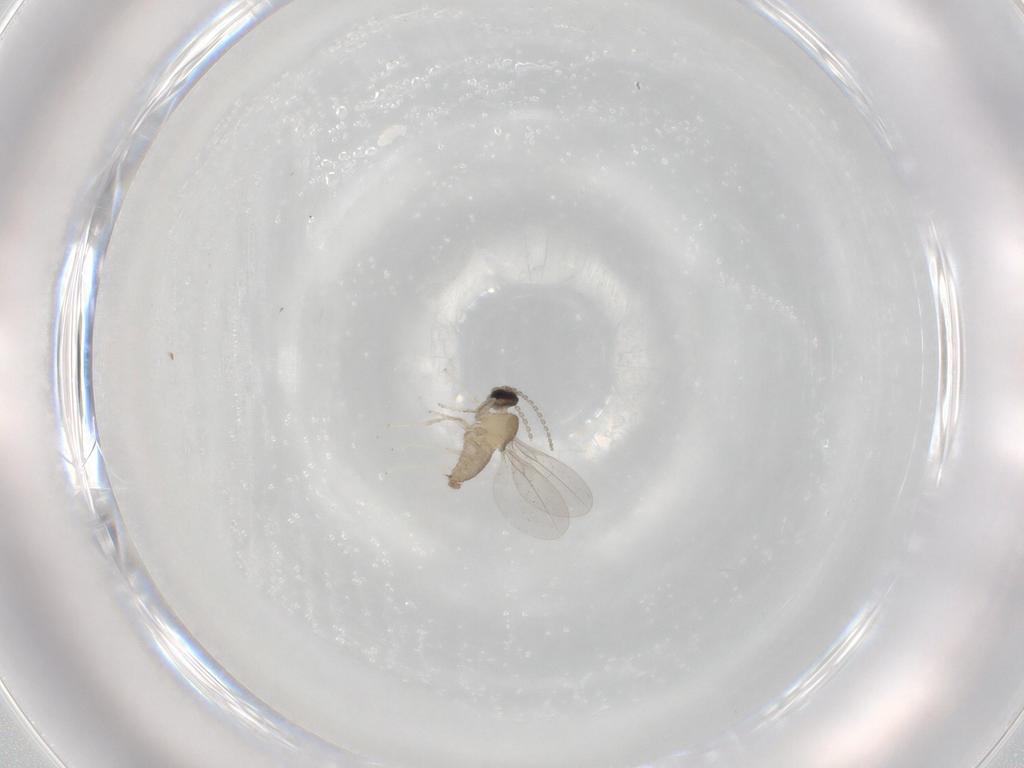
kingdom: Animalia
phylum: Arthropoda
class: Insecta
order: Diptera
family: Cecidomyiidae
